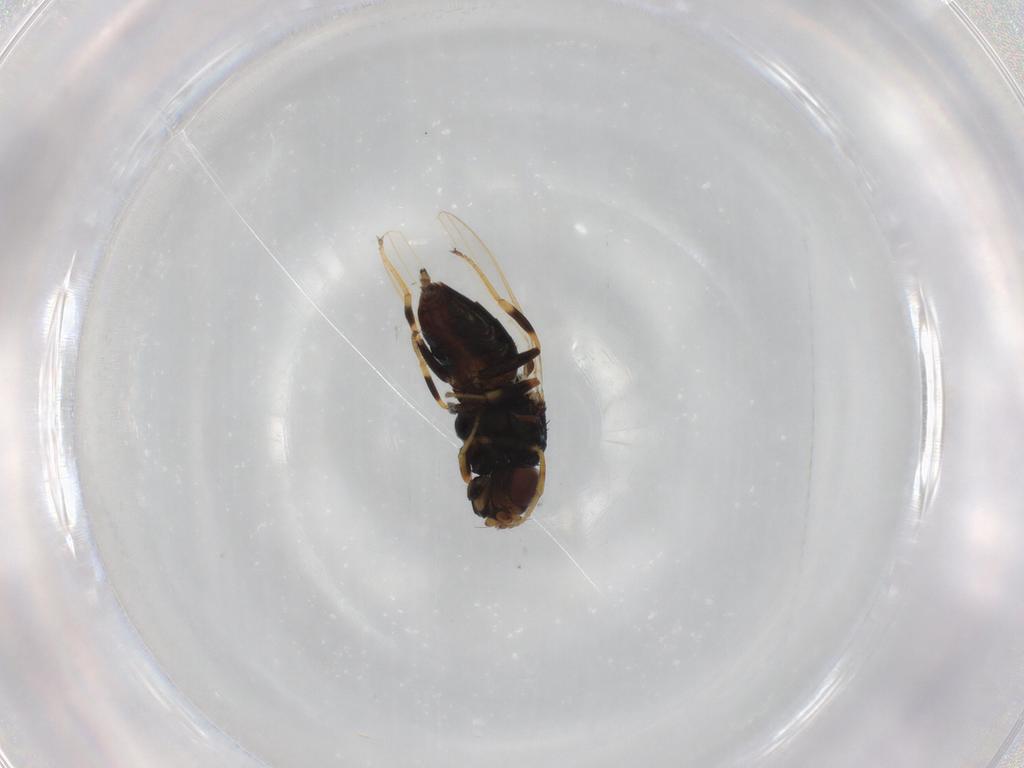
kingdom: Animalia
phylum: Arthropoda
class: Insecta
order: Diptera
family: Chloropidae
